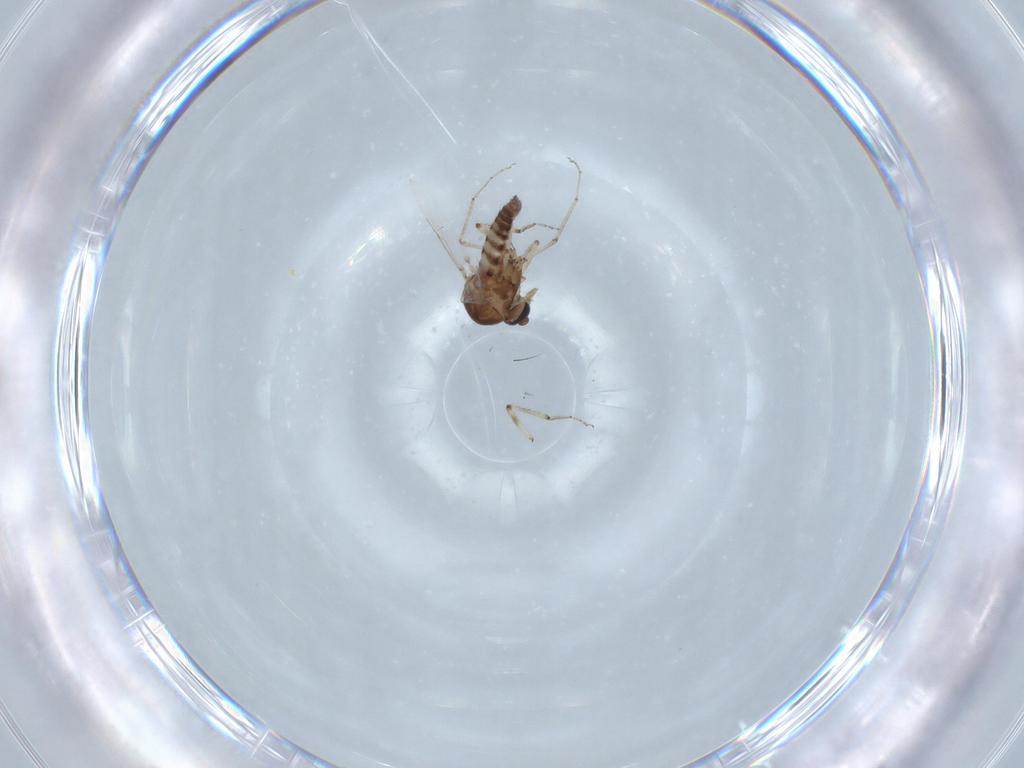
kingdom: Animalia
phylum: Arthropoda
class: Insecta
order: Diptera
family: Ceratopogonidae
